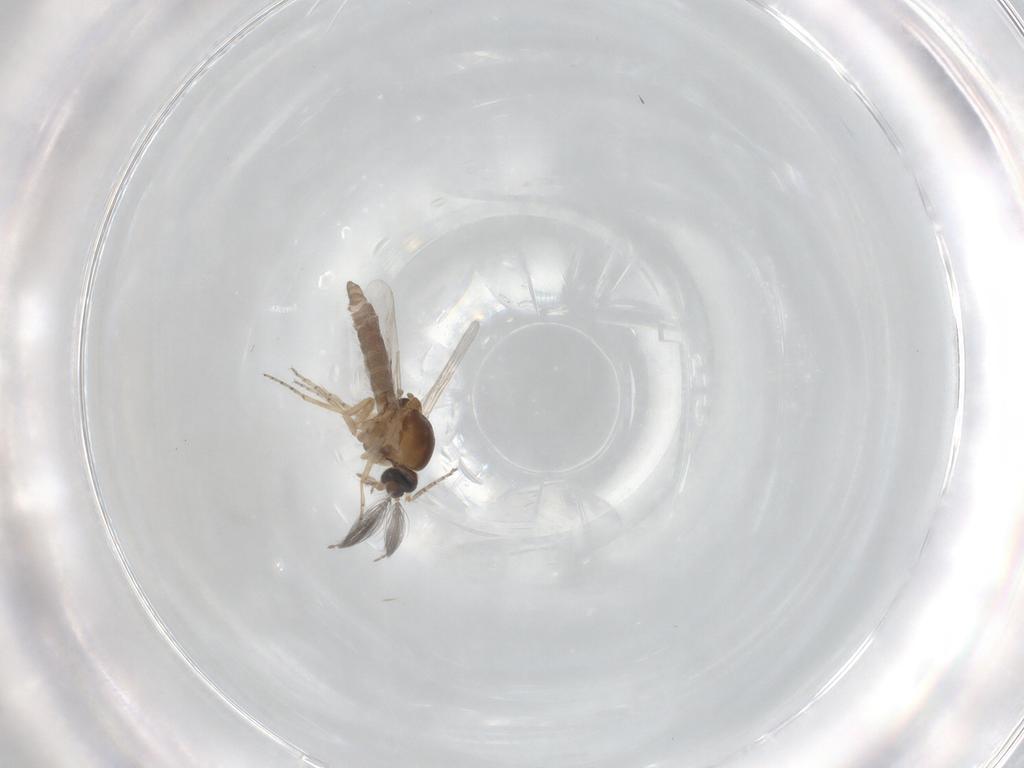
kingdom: Animalia
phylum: Arthropoda
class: Insecta
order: Diptera
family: Ceratopogonidae
